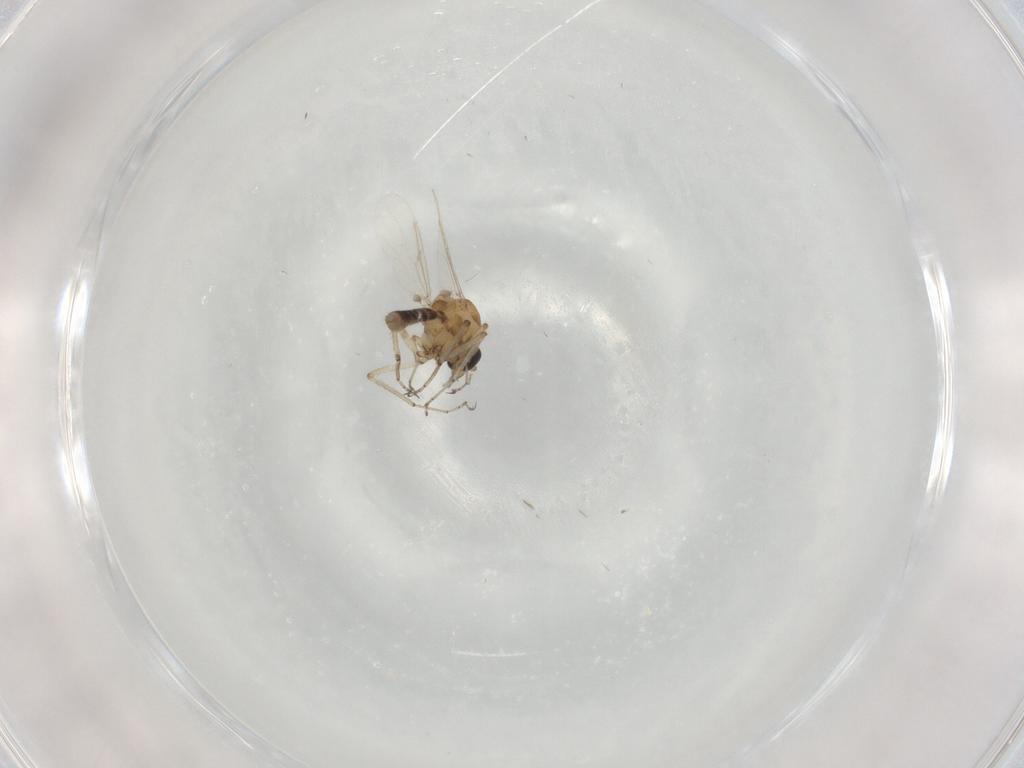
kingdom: Animalia
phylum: Arthropoda
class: Insecta
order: Diptera
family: Ceratopogonidae
